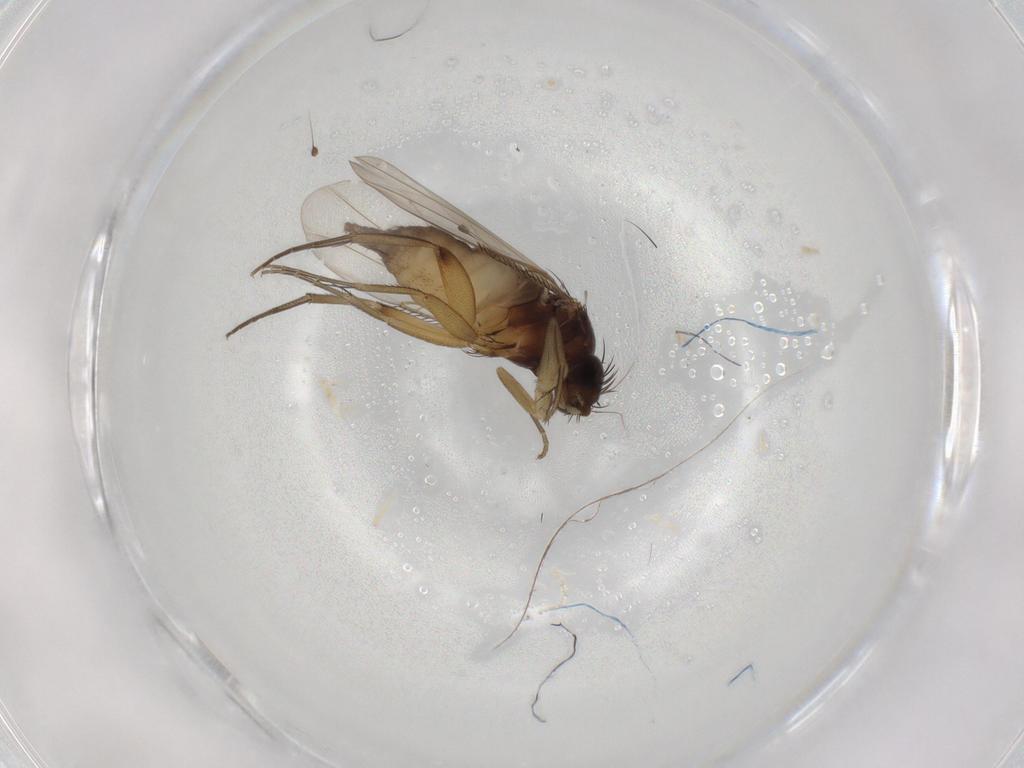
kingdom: Animalia
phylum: Arthropoda
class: Insecta
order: Diptera
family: Phoridae
